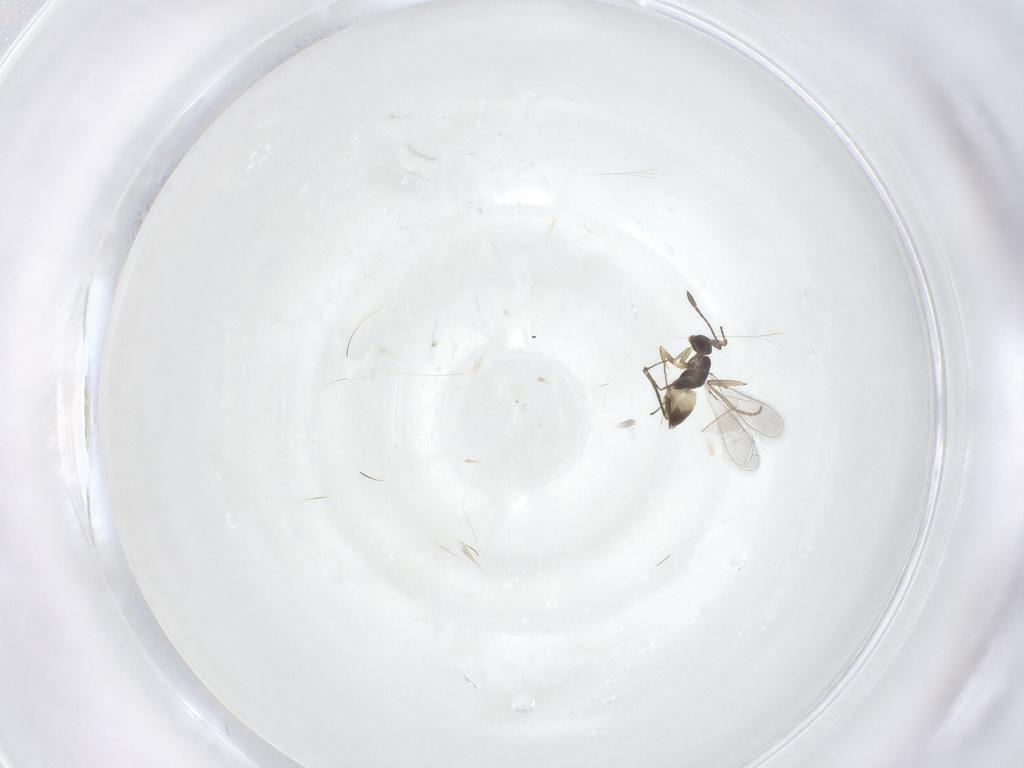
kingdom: Animalia
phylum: Arthropoda
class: Insecta
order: Hymenoptera
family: Mymaridae
